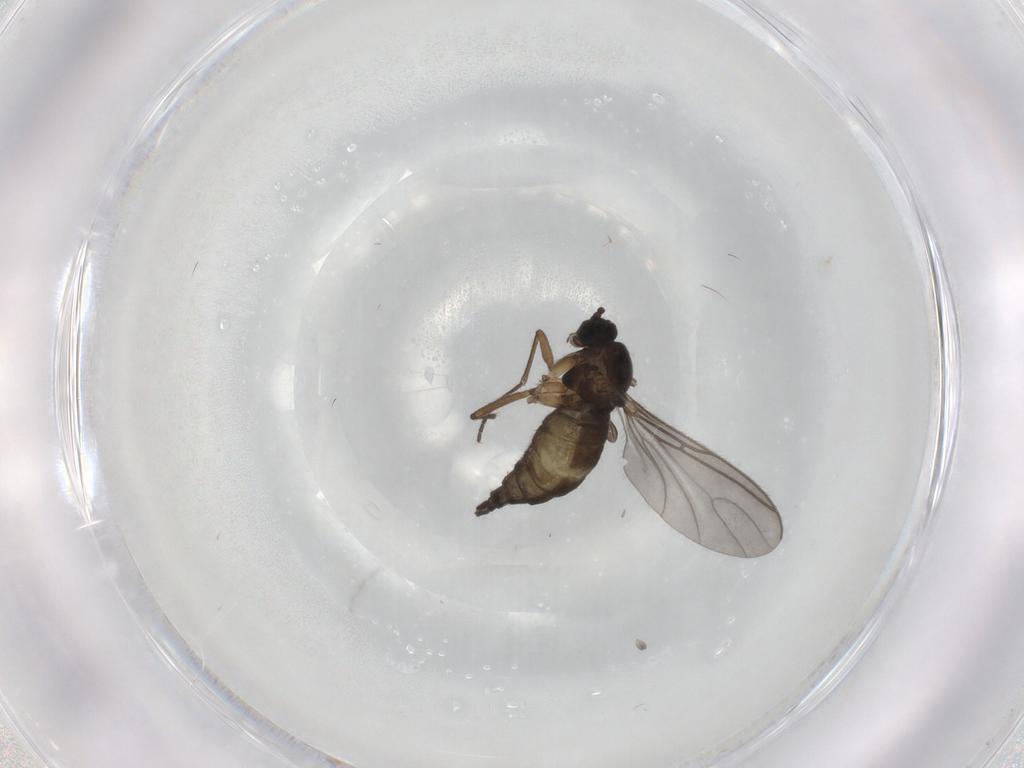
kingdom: Animalia
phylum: Arthropoda
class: Insecta
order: Diptera
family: Sciaridae
